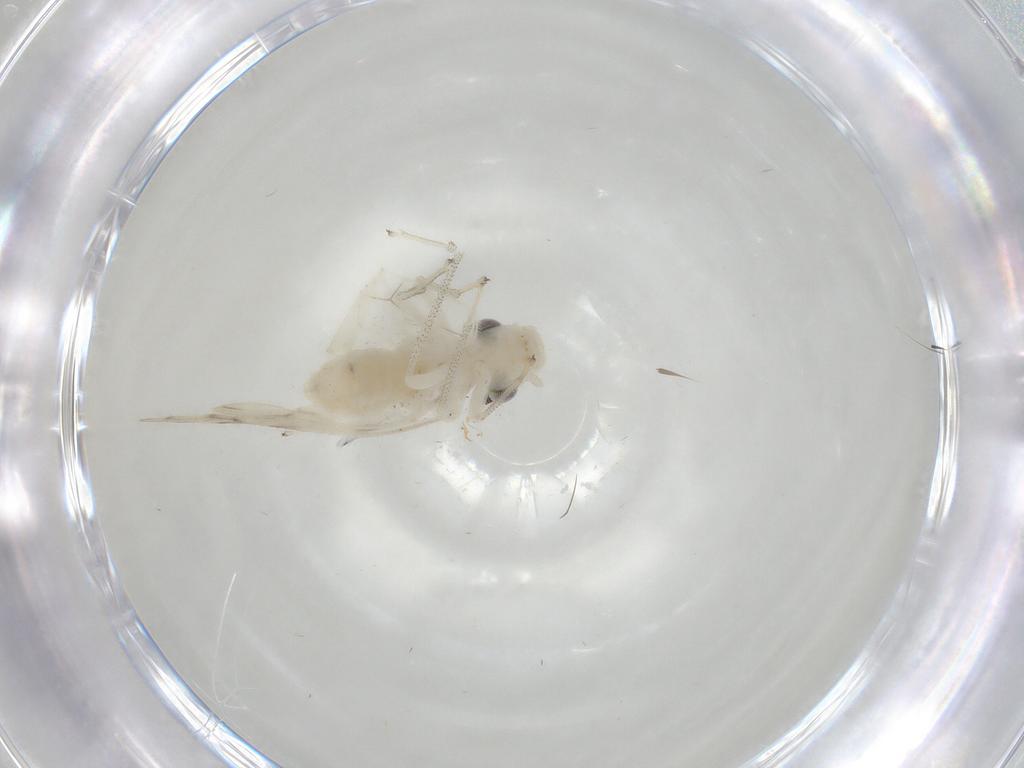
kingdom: Animalia
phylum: Arthropoda
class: Insecta
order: Psocodea
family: Caeciliusidae
